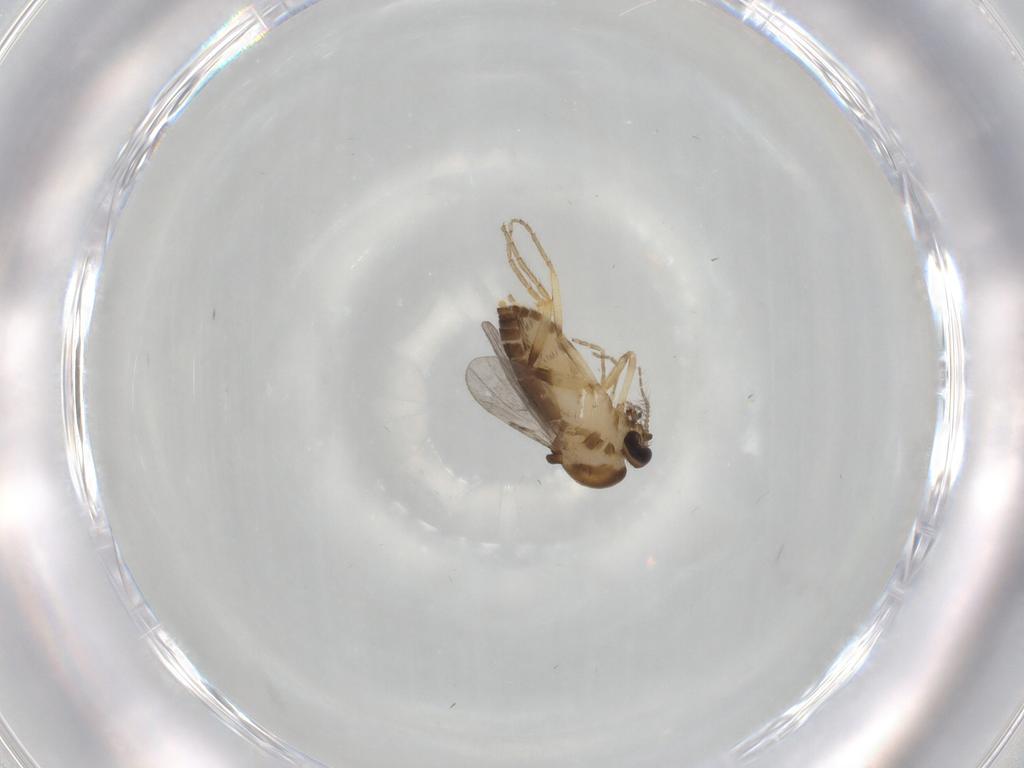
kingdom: Animalia
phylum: Arthropoda
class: Insecta
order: Diptera
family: Ceratopogonidae
